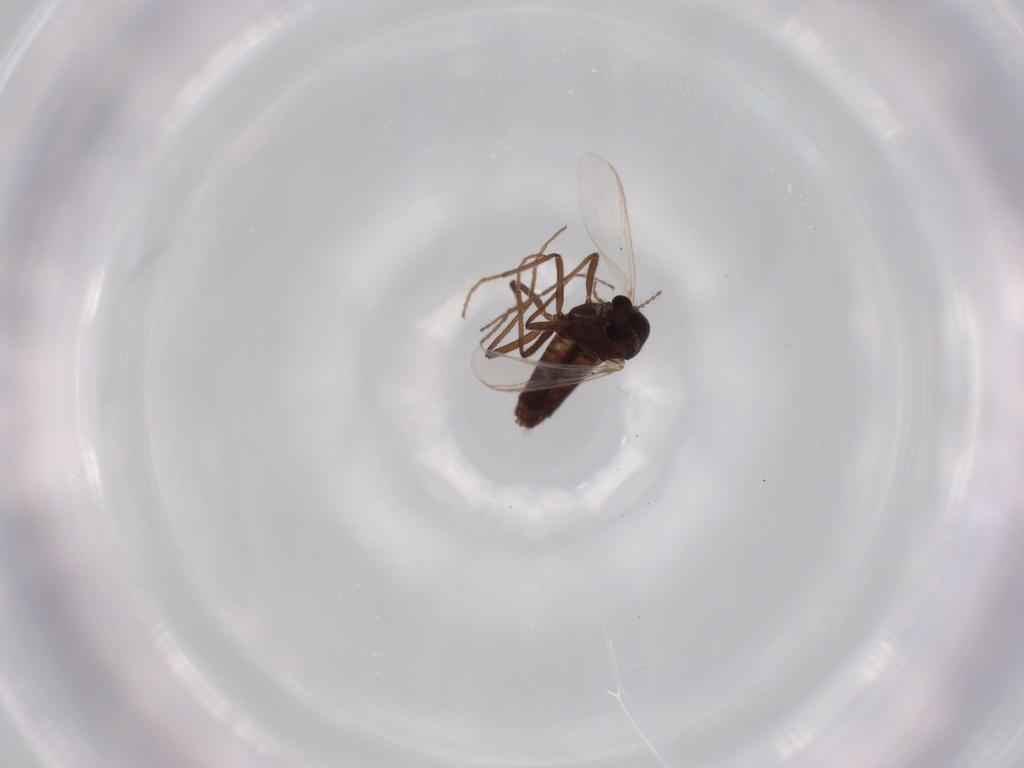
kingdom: Animalia
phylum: Arthropoda
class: Insecta
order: Diptera
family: Chironomidae
